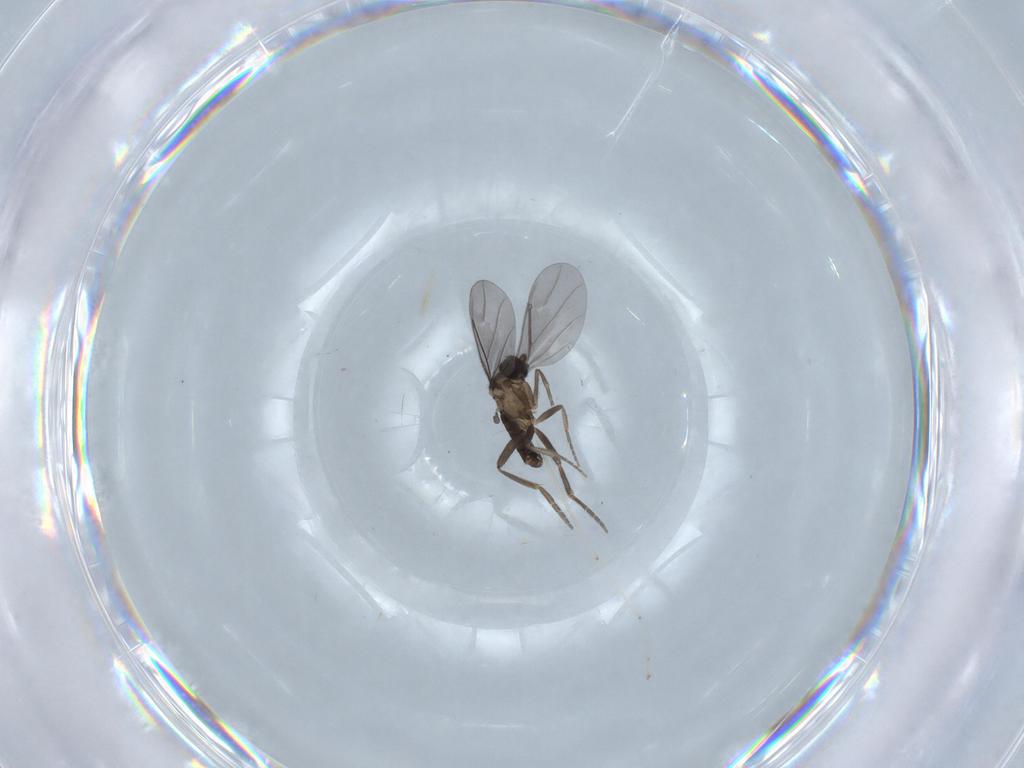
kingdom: Animalia
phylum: Arthropoda
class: Insecta
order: Diptera
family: Phoridae
